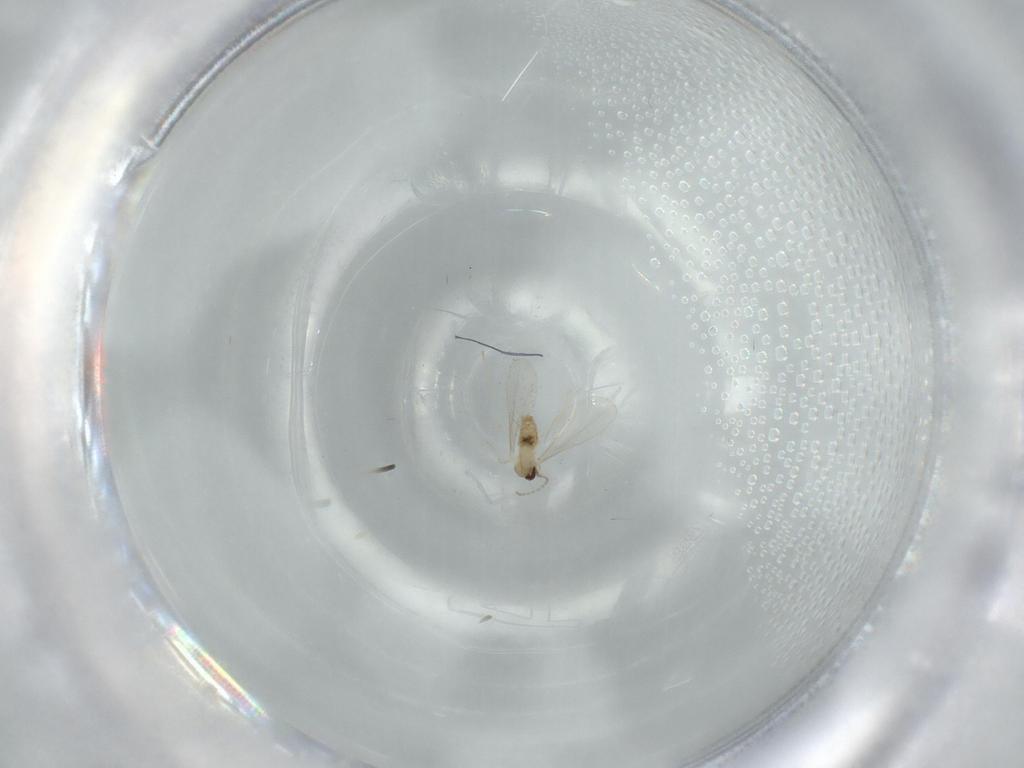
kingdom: Animalia
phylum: Arthropoda
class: Insecta
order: Diptera
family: Cecidomyiidae
